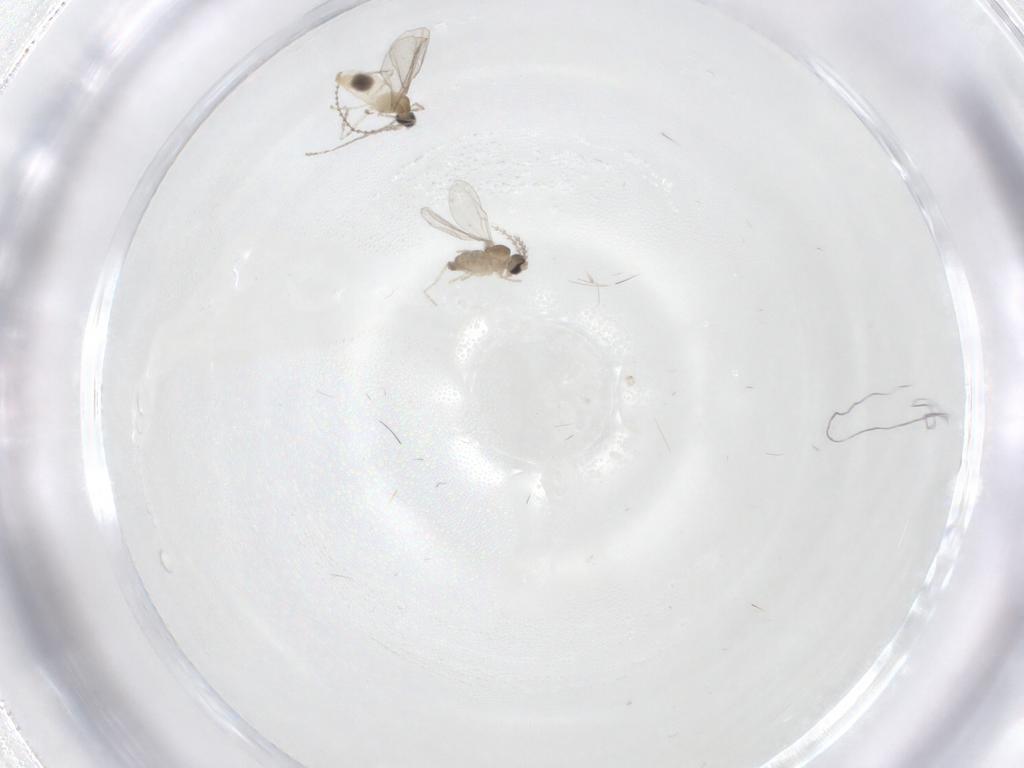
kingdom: Animalia
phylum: Arthropoda
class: Insecta
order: Diptera
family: Cecidomyiidae
